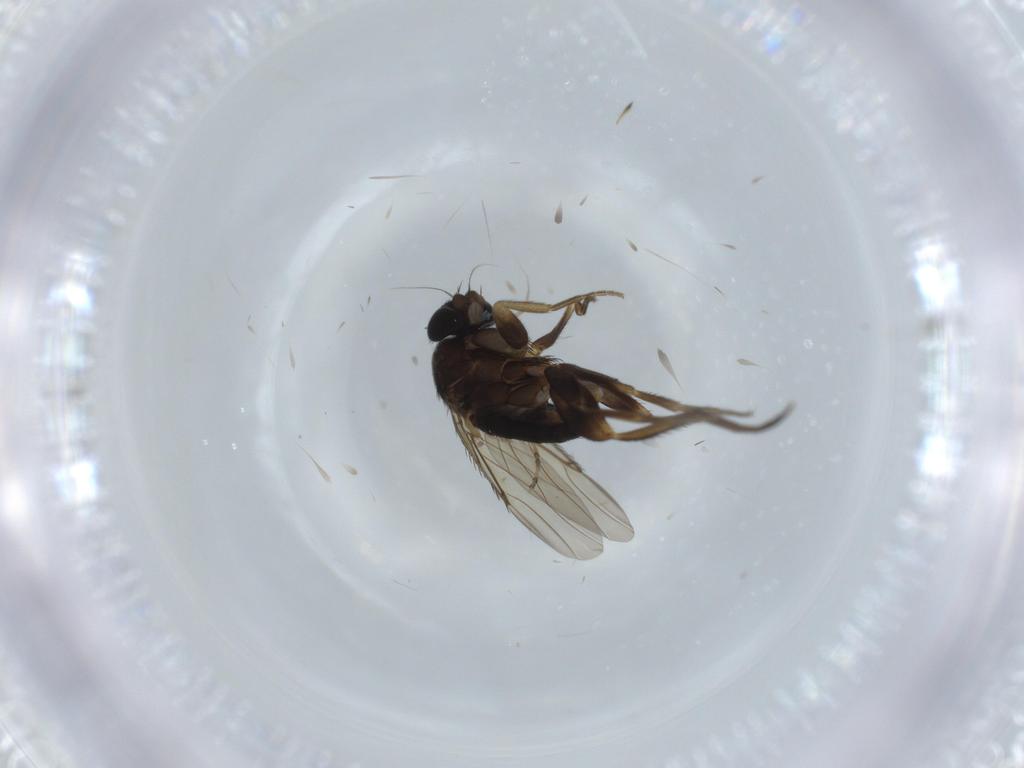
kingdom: Animalia
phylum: Arthropoda
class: Insecta
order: Diptera
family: Phoridae
